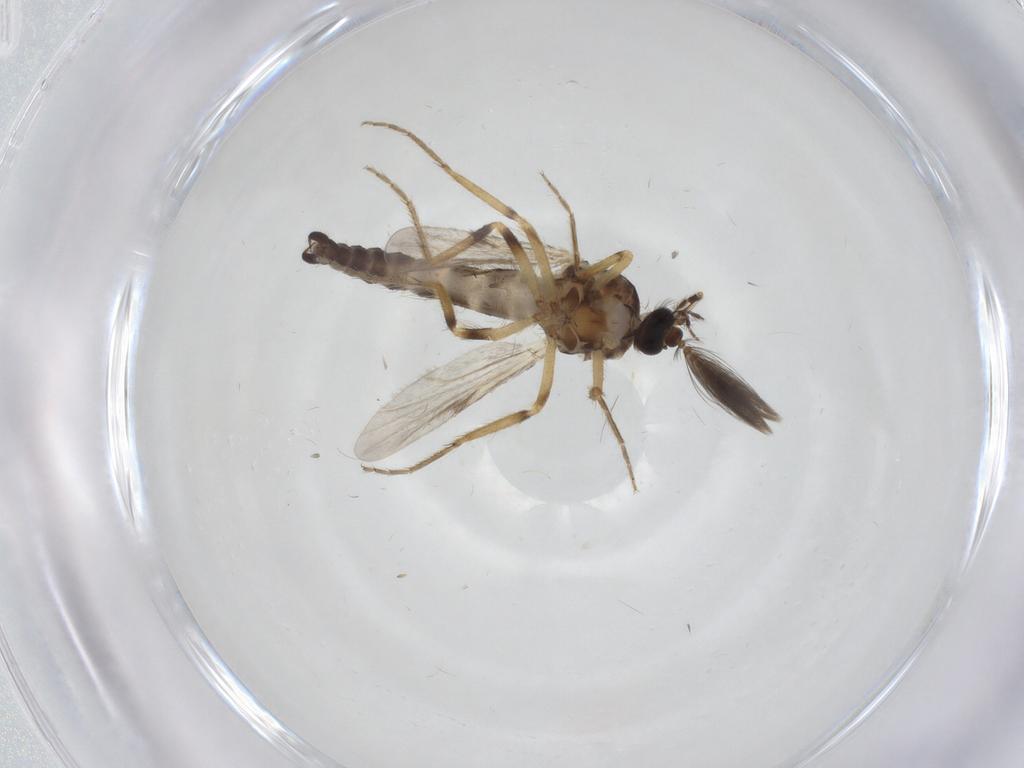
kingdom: Animalia
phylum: Arthropoda
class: Insecta
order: Diptera
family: Ceratopogonidae
